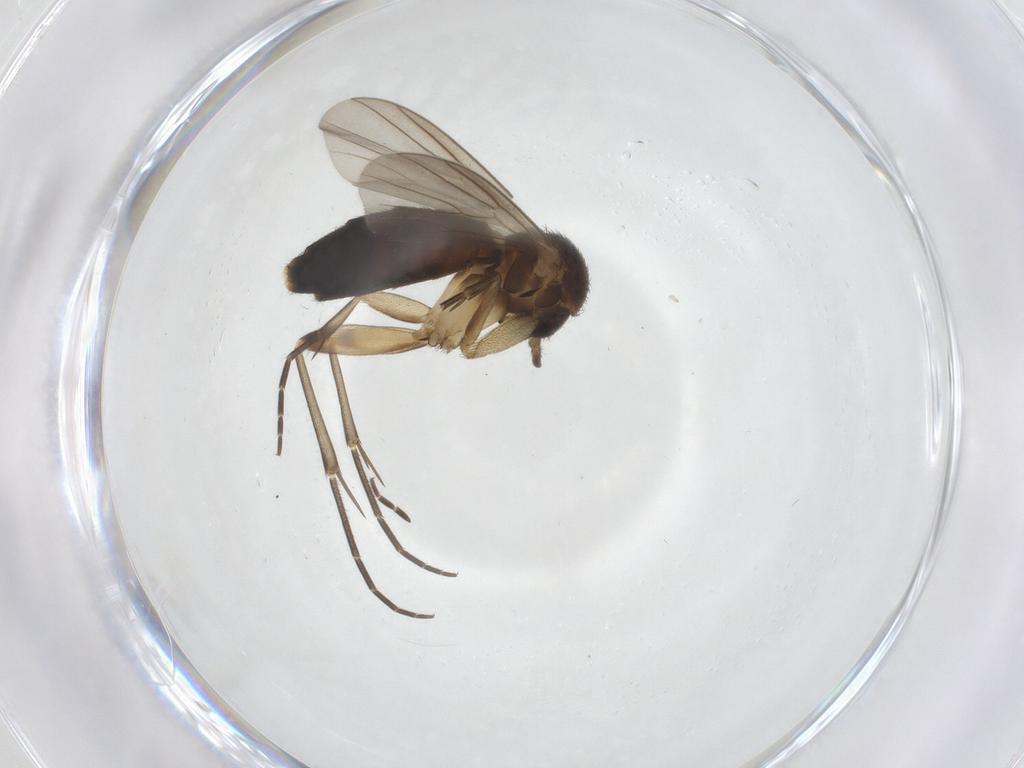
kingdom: Animalia
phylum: Arthropoda
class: Insecta
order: Diptera
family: Mycetophilidae
